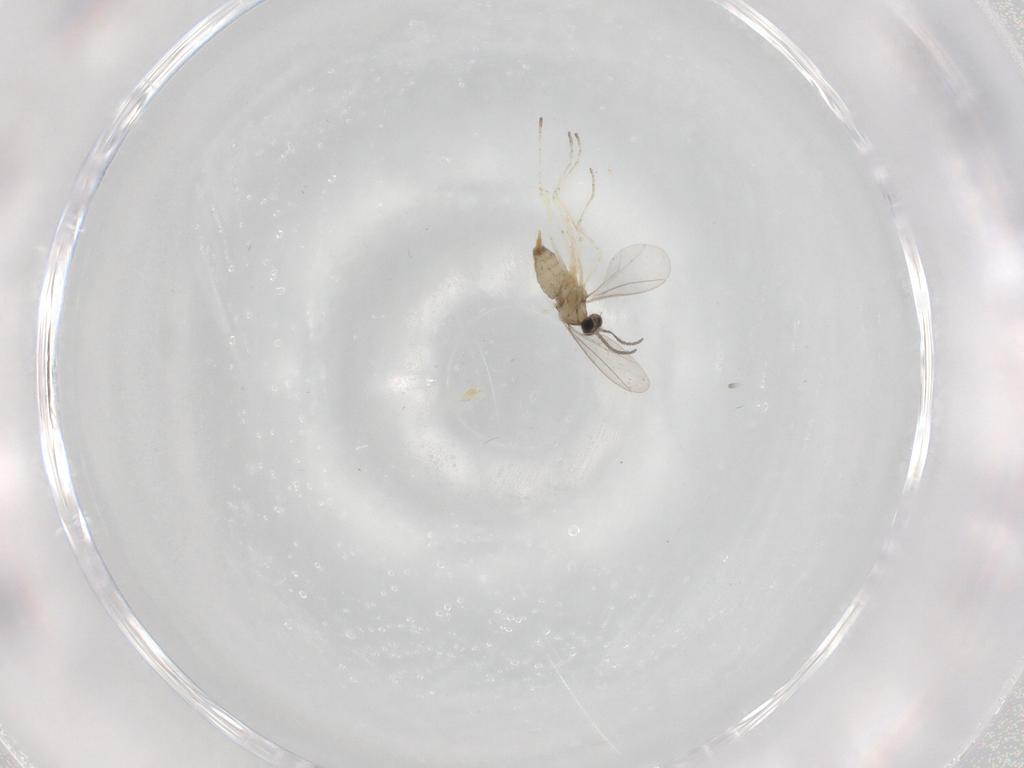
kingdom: Animalia
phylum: Arthropoda
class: Insecta
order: Diptera
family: Cecidomyiidae
